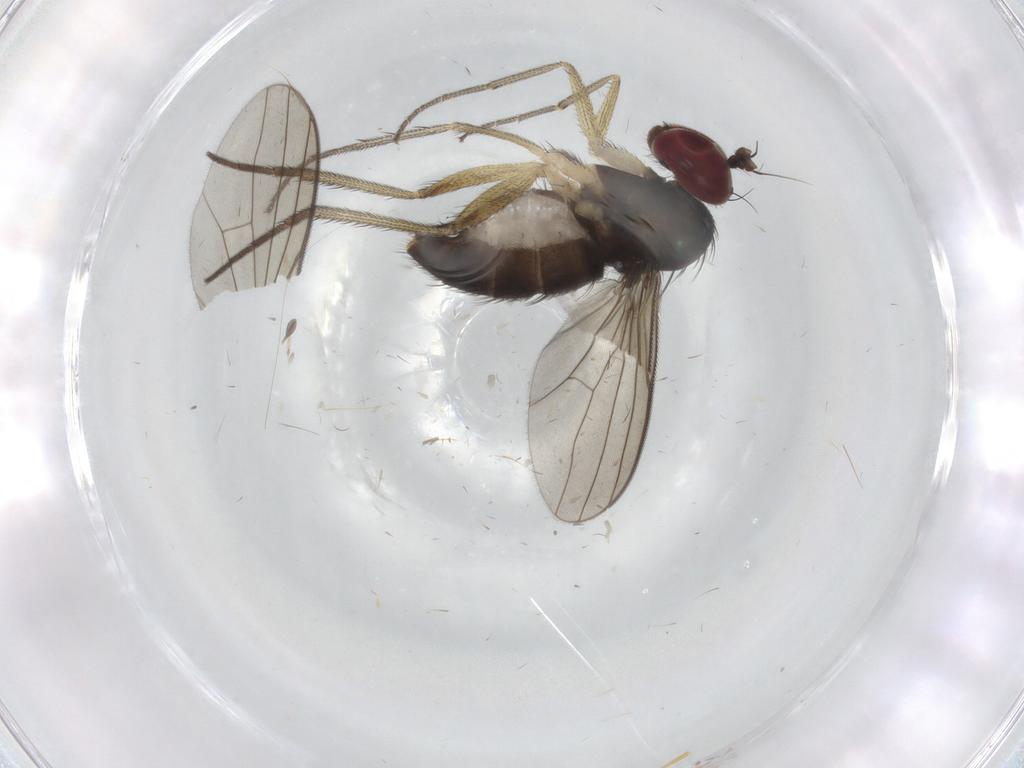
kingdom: Animalia
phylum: Arthropoda
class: Insecta
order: Diptera
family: Dolichopodidae
